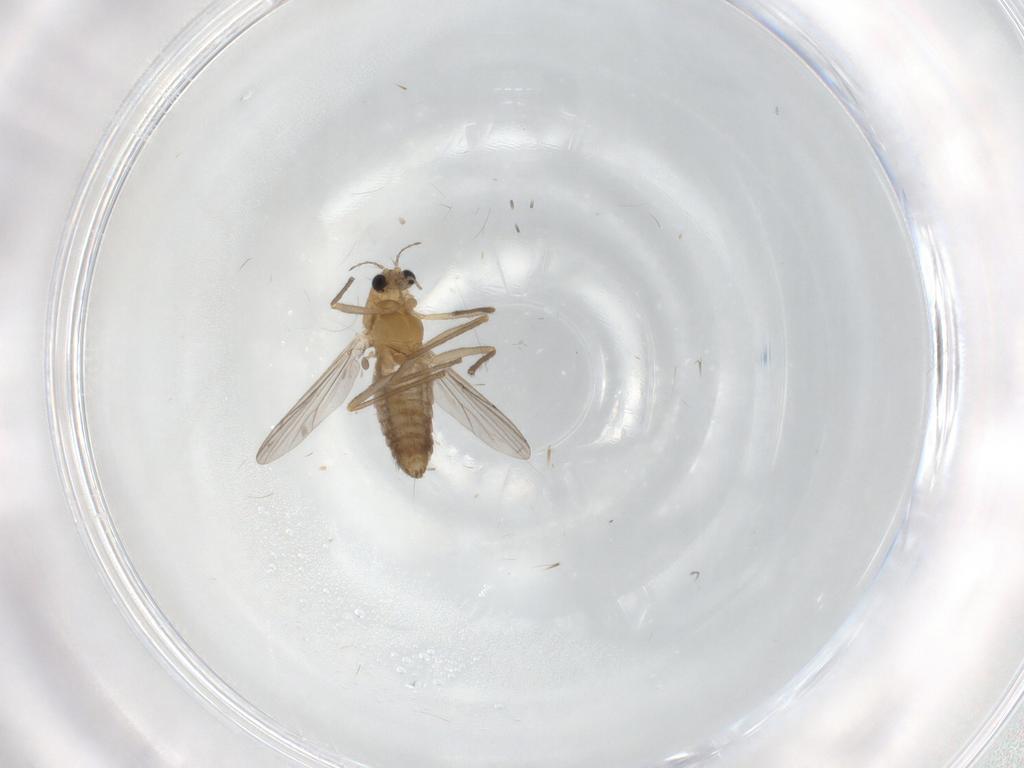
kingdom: Animalia
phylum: Arthropoda
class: Insecta
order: Diptera
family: Chironomidae
